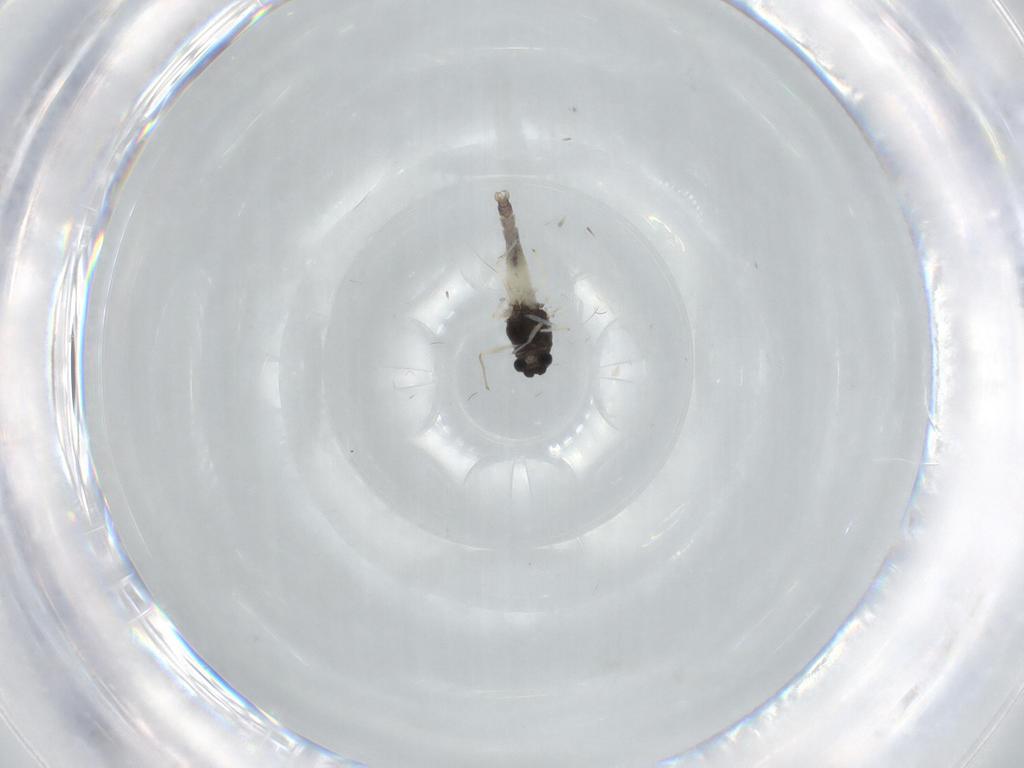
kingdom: Animalia
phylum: Arthropoda
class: Insecta
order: Diptera
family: Chironomidae
